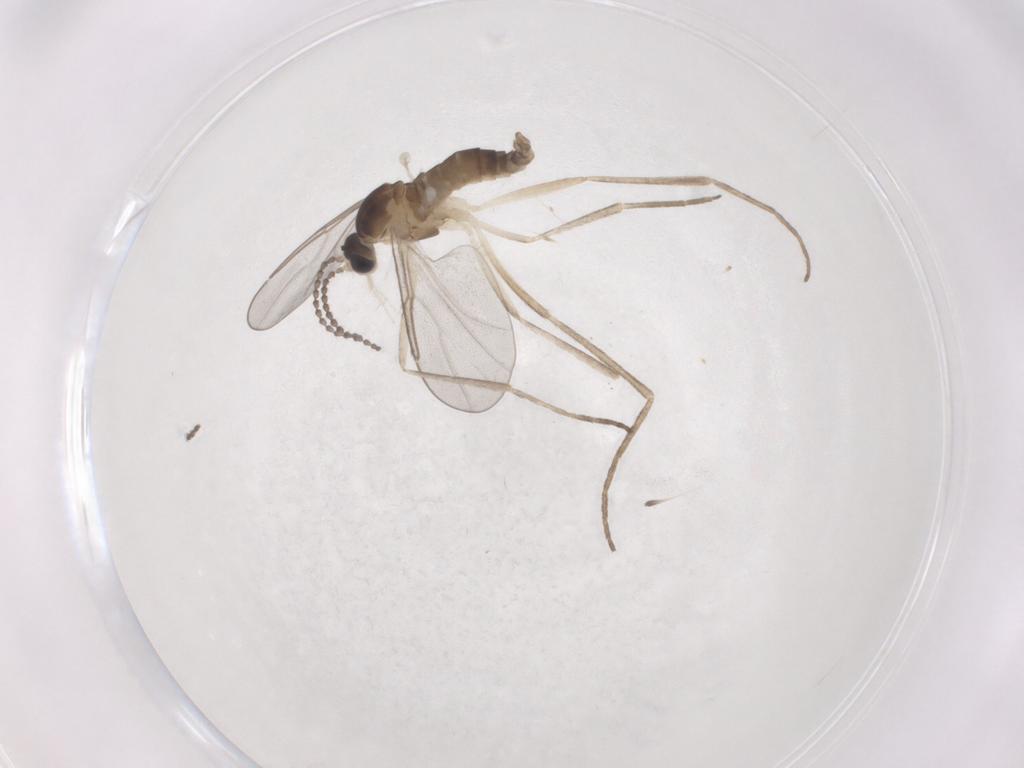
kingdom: Animalia
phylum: Arthropoda
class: Insecta
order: Diptera
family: Cecidomyiidae
